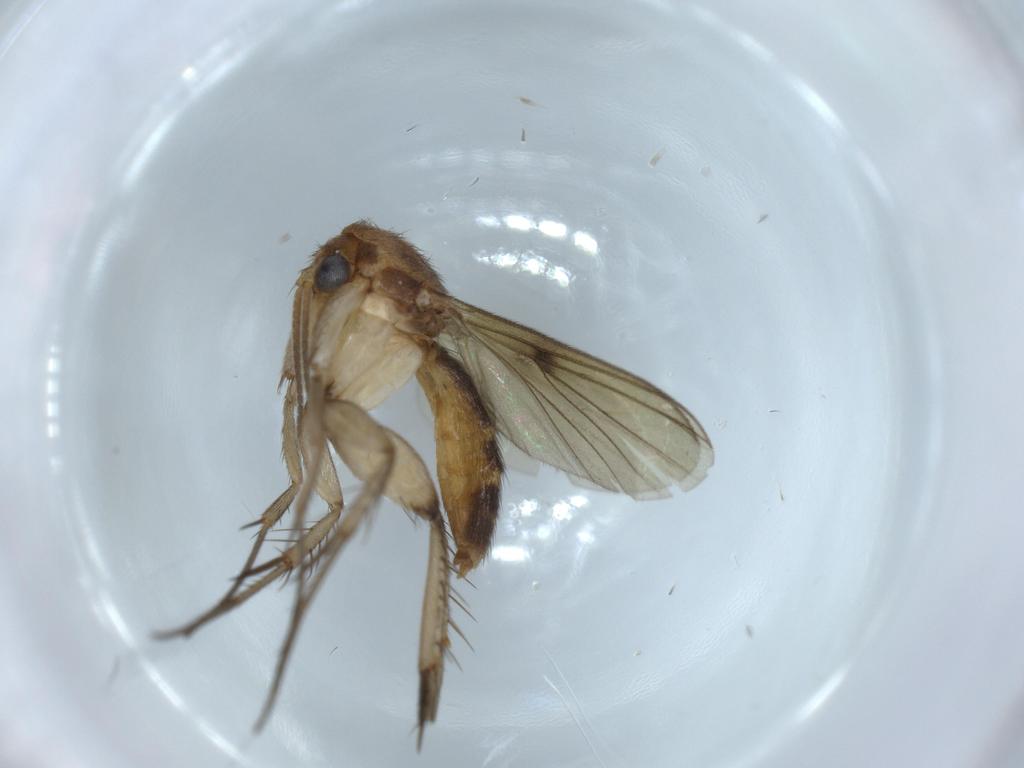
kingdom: Animalia
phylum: Arthropoda
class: Insecta
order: Diptera
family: Cecidomyiidae
